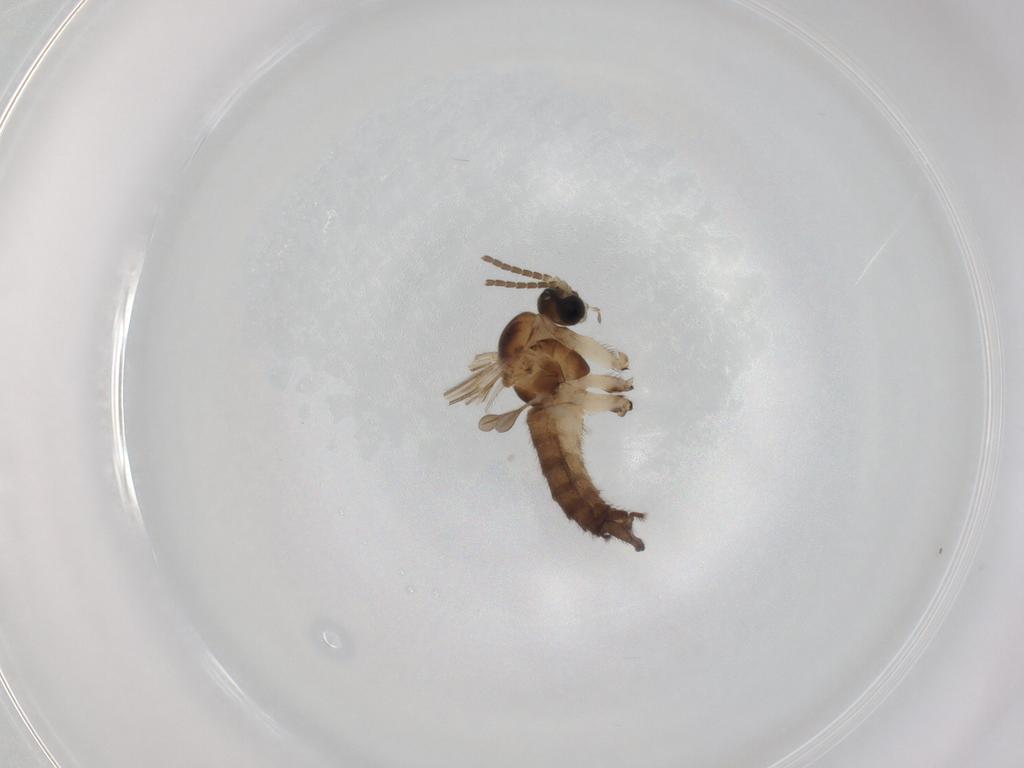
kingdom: Animalia
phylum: Arthropoda
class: Insecta
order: Diptera
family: Sciaridae
